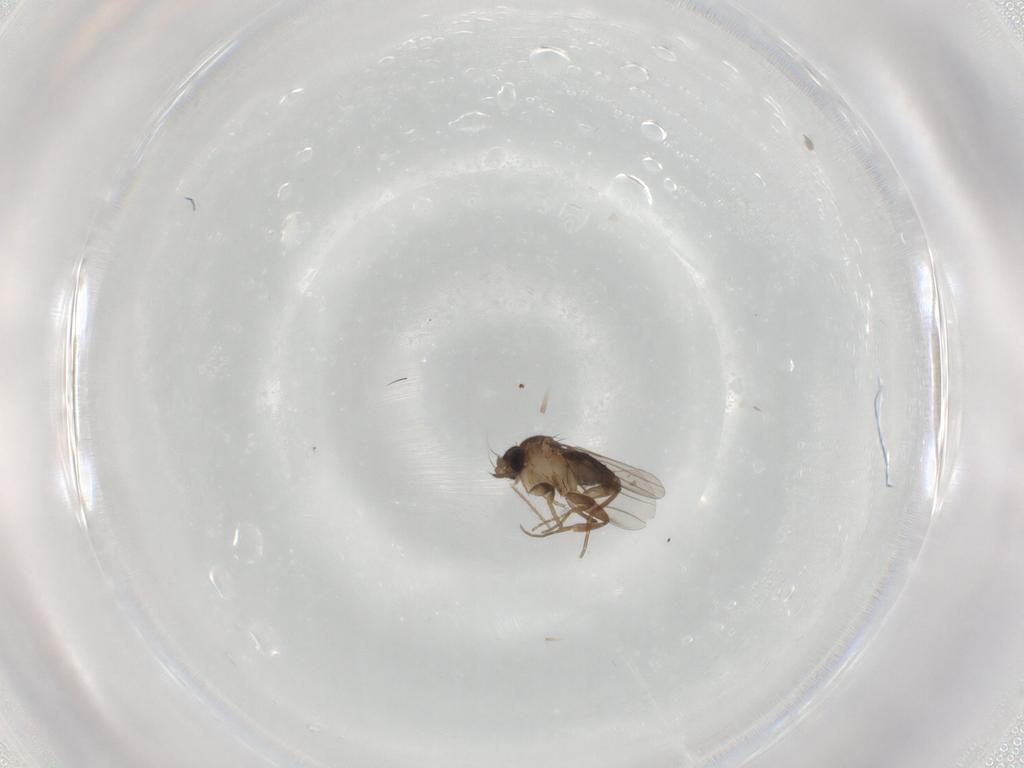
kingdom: Animalia
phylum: Arthropoda
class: Insecta
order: Diptera
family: Phoridae
